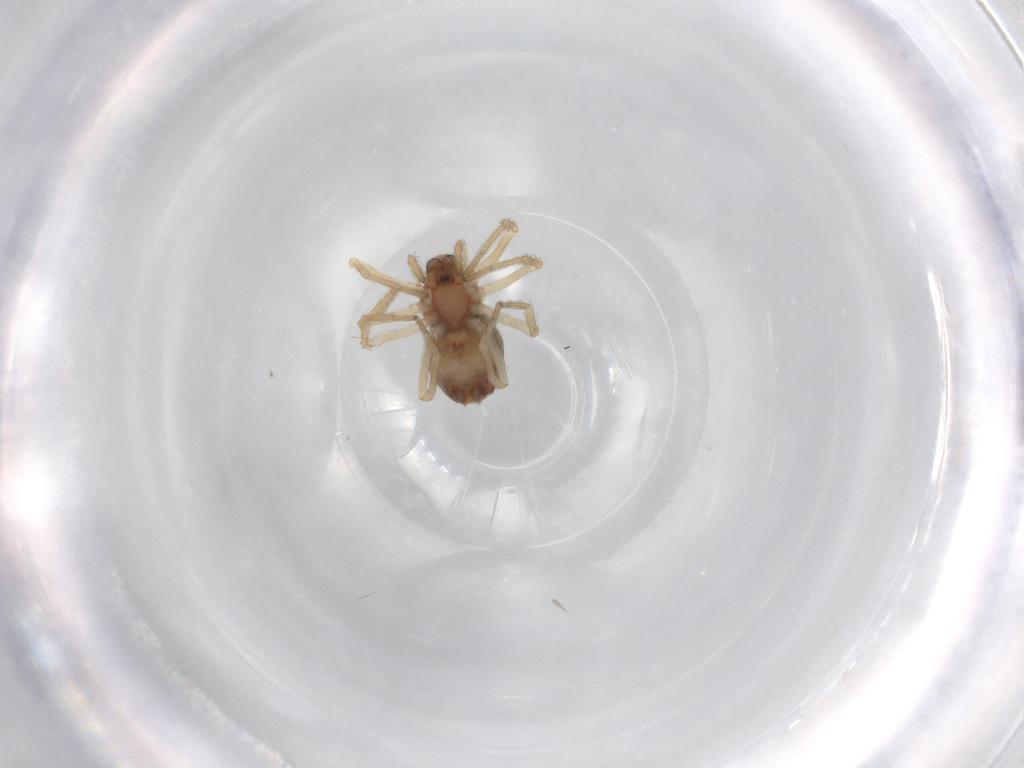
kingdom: Animalia
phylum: Arthropoda
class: Arachnida
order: Araneae
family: Dictynidae
